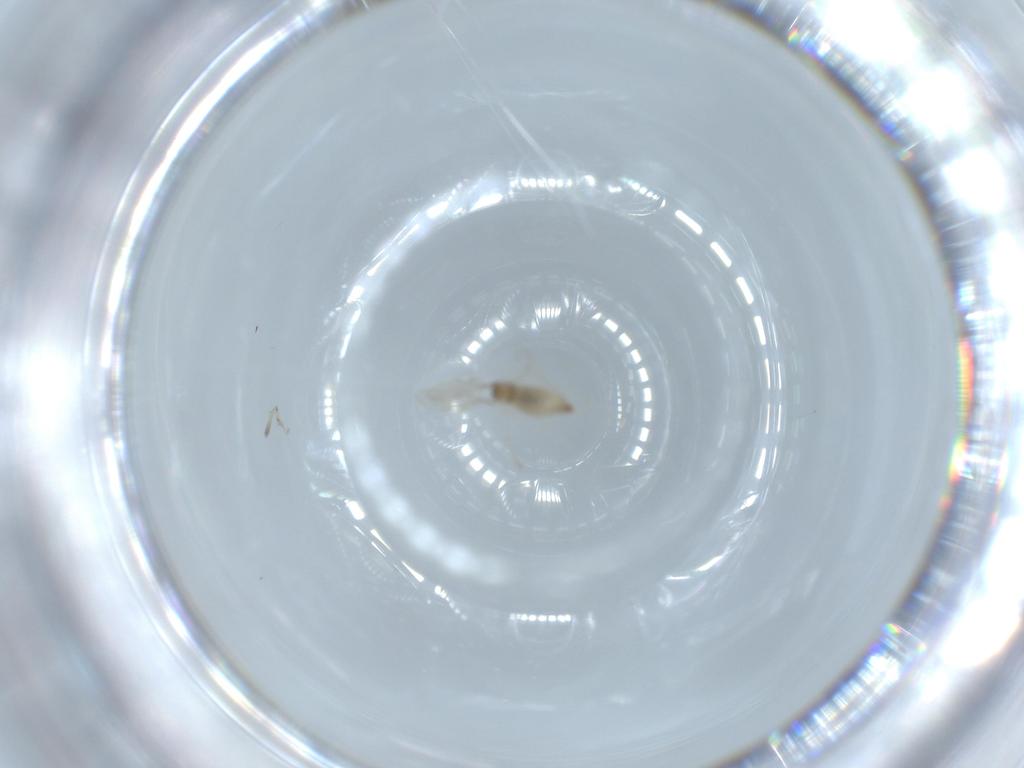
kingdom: Animalia
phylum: Arthropoda
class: Insecta
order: Diptera
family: Cecidomyiidae
